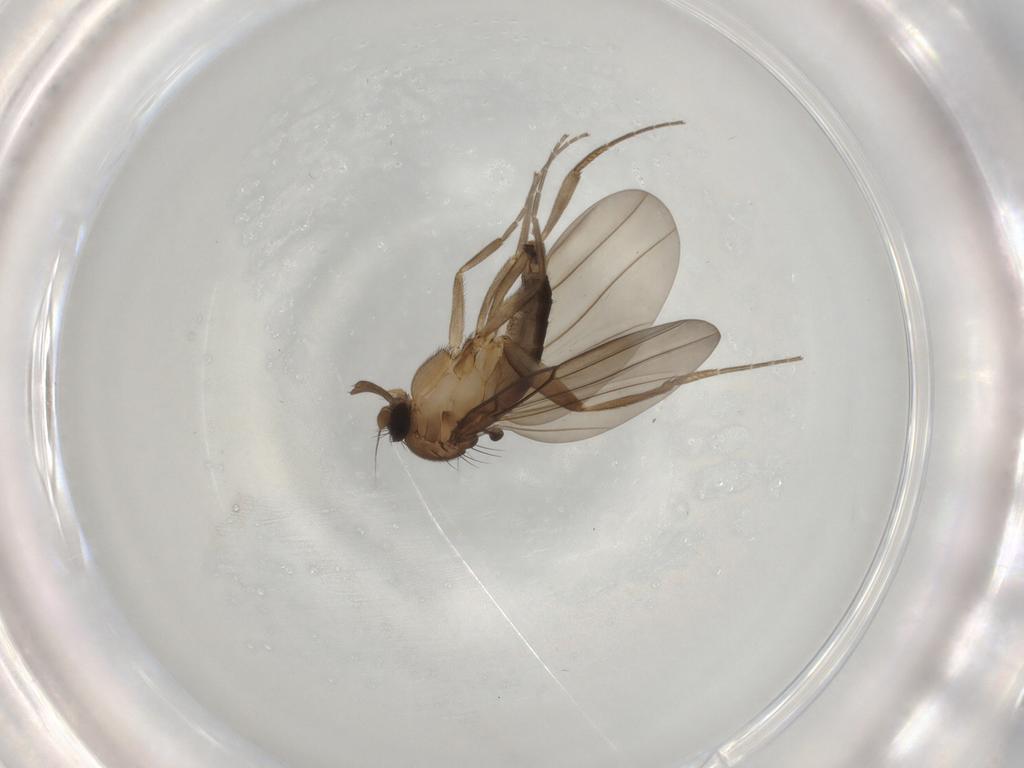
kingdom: Animalia
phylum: Arthropoda
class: Insecta
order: Diptera
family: Phoridae
